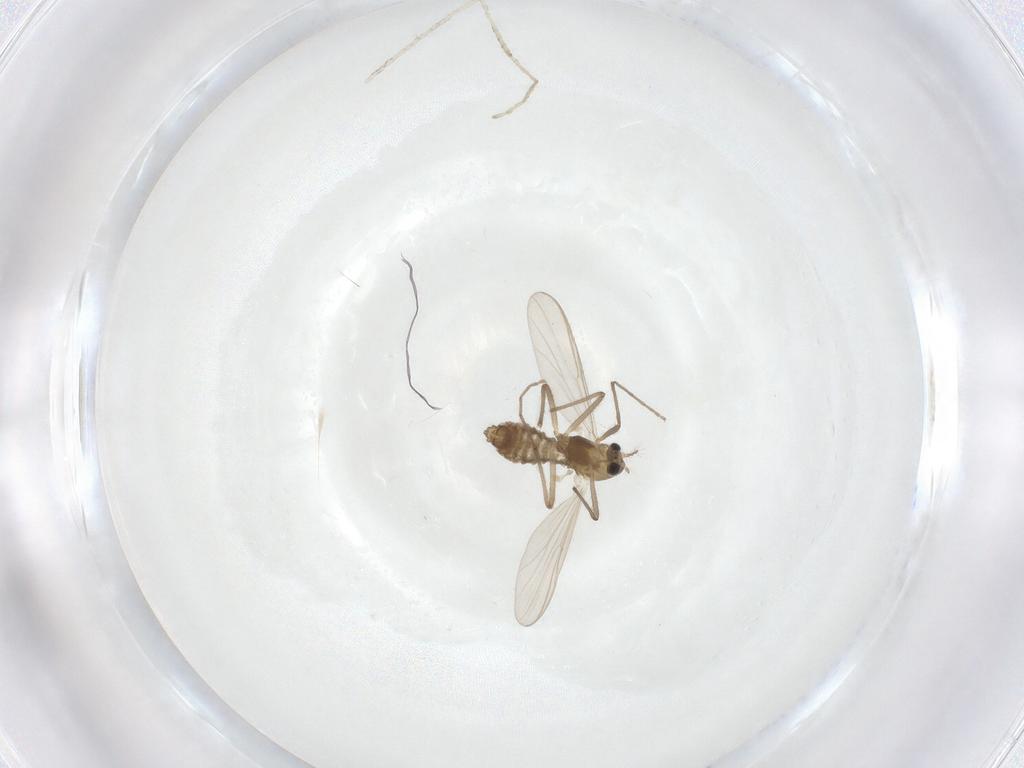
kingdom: Animalia
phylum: Arthropoda
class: Insecta
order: Diptera
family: Chironomidae
